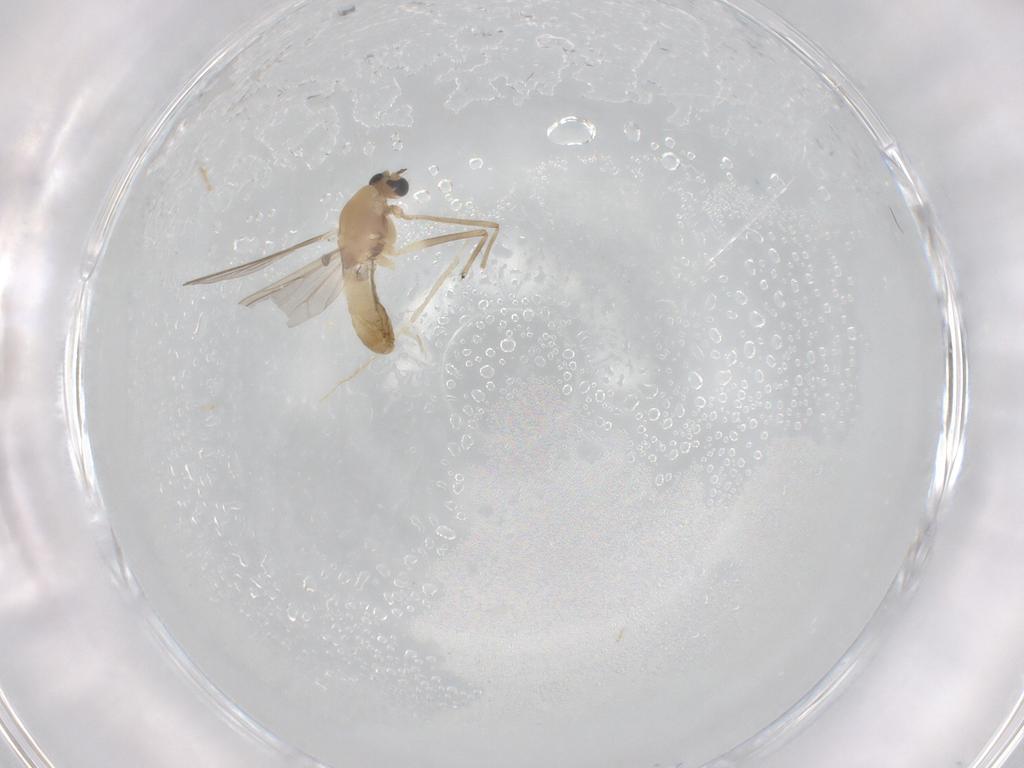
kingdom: Animalia
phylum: Arthropoda
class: Insecta
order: Diptera
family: Chironomidae
